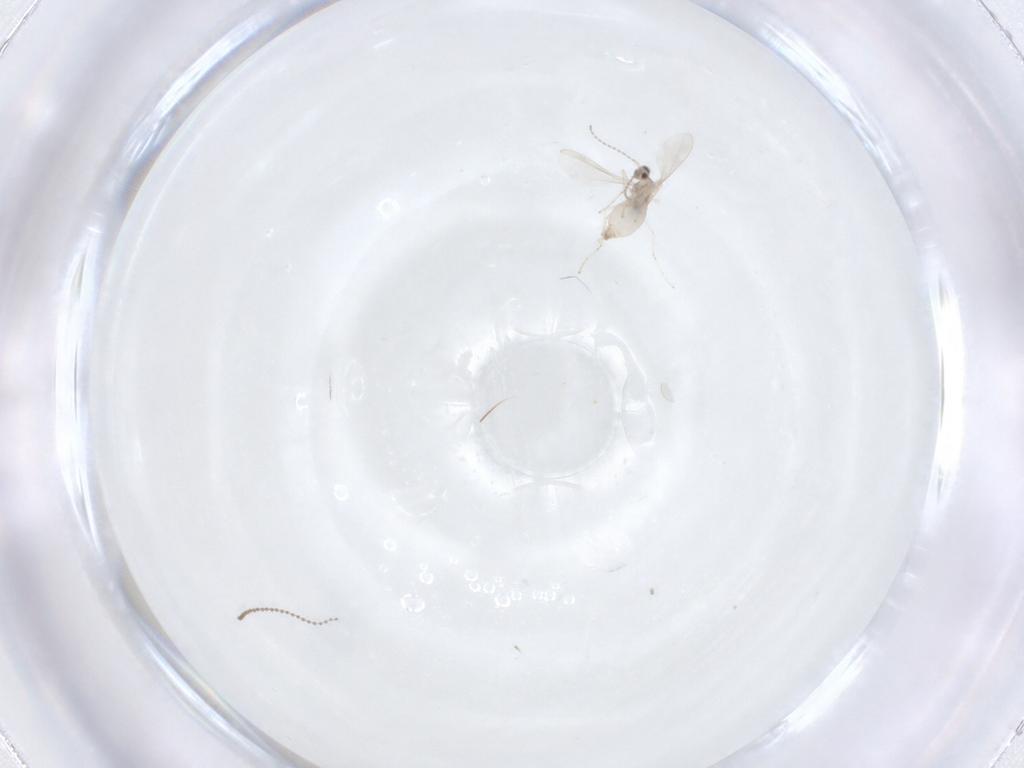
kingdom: Animalia
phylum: Arthropoda
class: Insecta
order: Diptera
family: Cecidomyiidae
